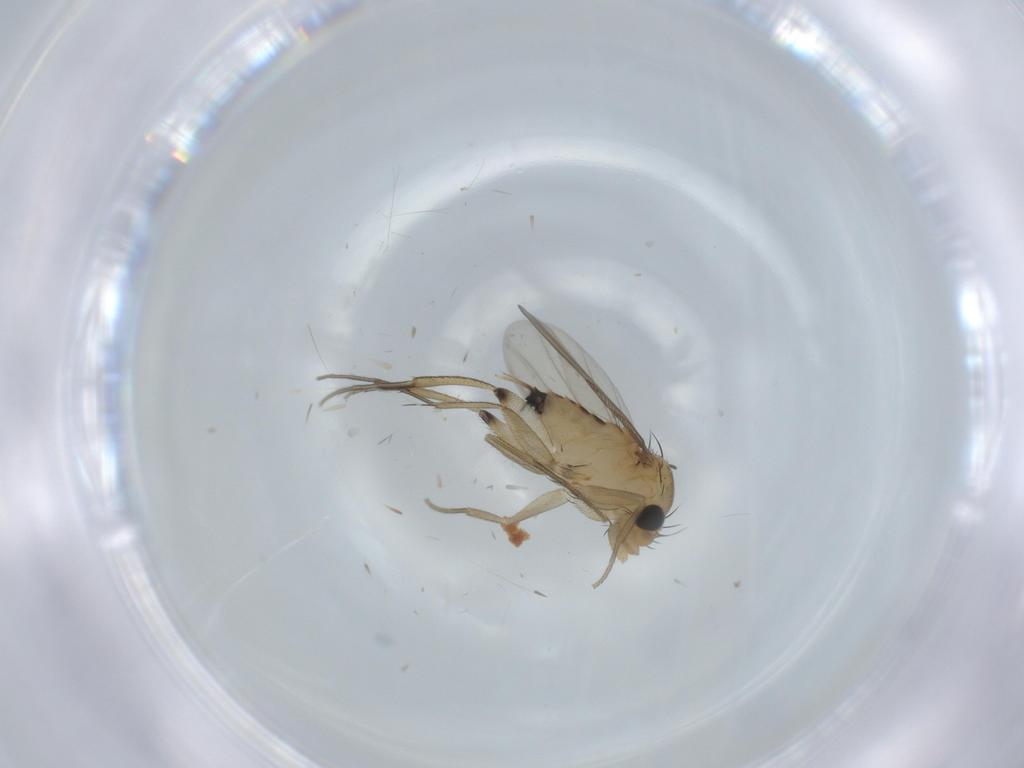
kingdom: Animalia
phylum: Arthropoda
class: Insecta
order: Diptera
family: Phoridae
